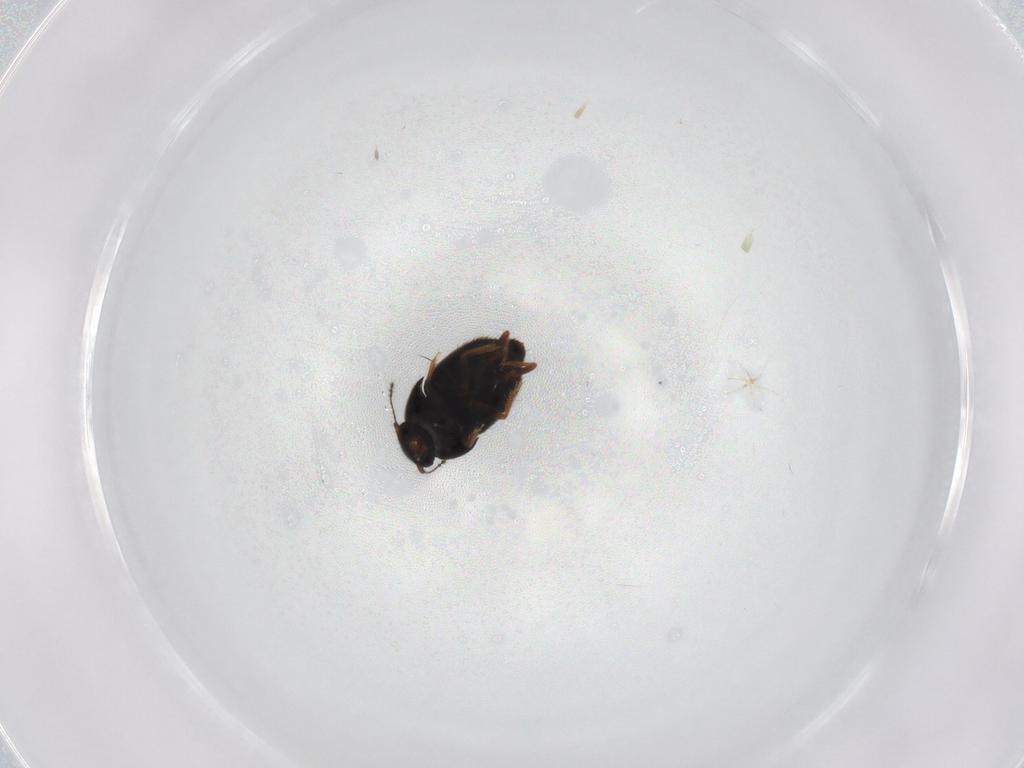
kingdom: Animalia
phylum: Arthropoda
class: Insecta
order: Coleoptera
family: Ptiliidae
